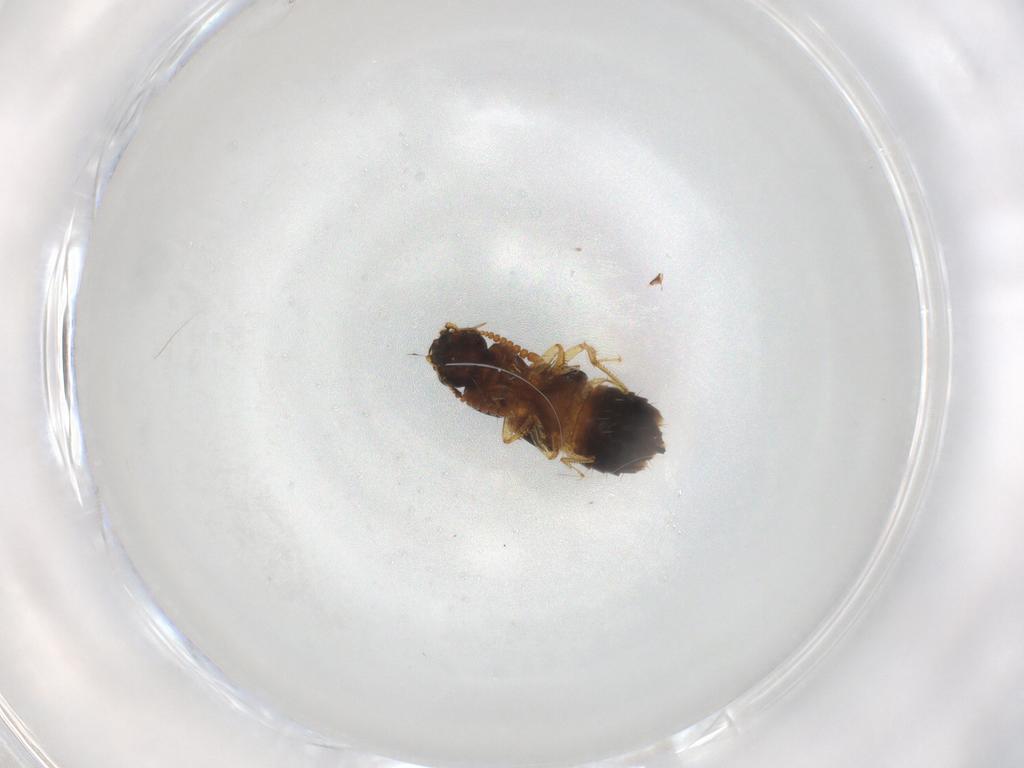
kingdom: Animalia
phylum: Arthropoda
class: Insecta
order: Coleoptera
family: Staphylinidae
